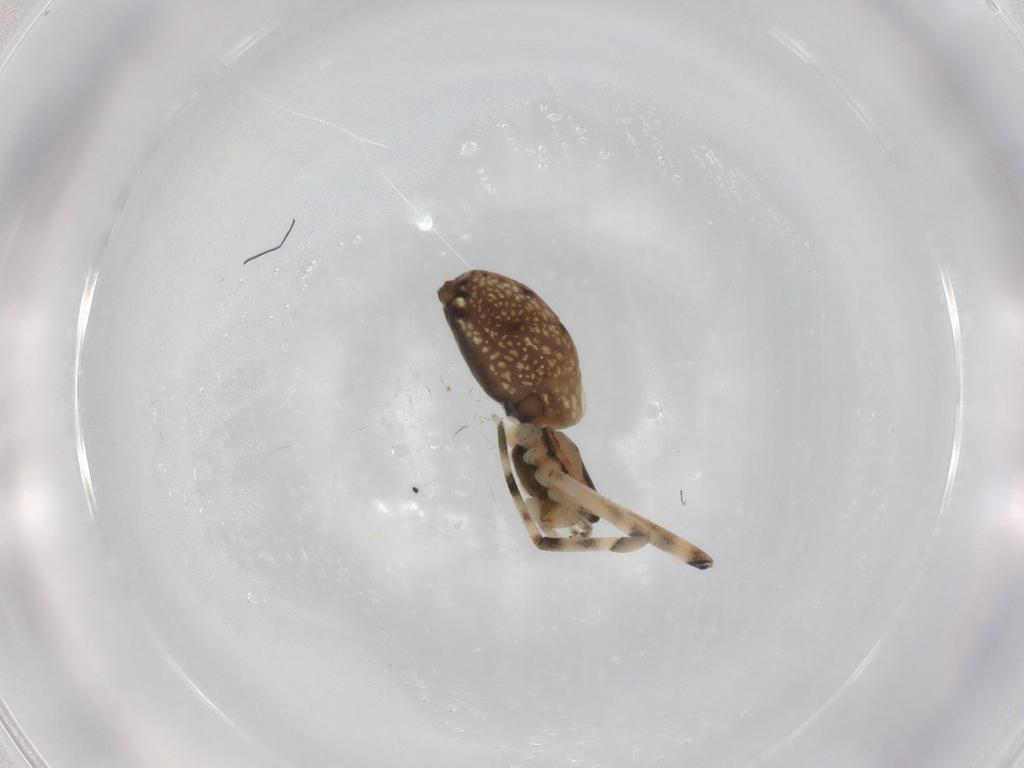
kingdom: Animalia
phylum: Arthropoda
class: Arachnida
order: Araneae
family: Tetragnathidae
